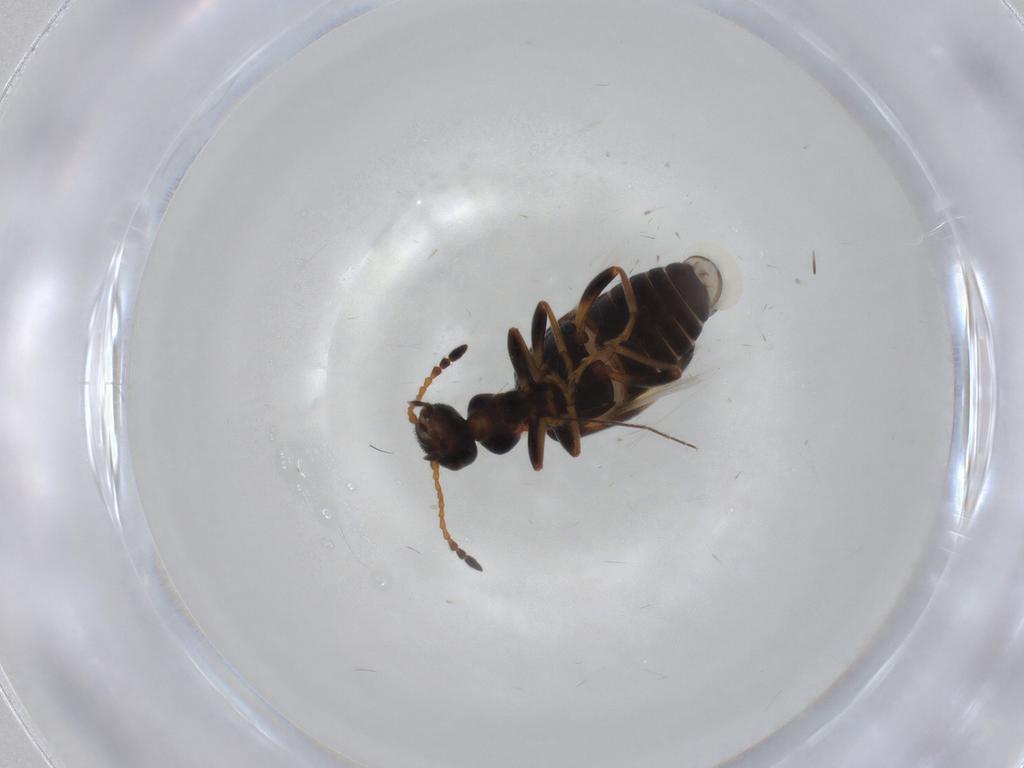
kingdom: Animalia
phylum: Arthropoda
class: Insecta
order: Coleoptera
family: Anthicidae
